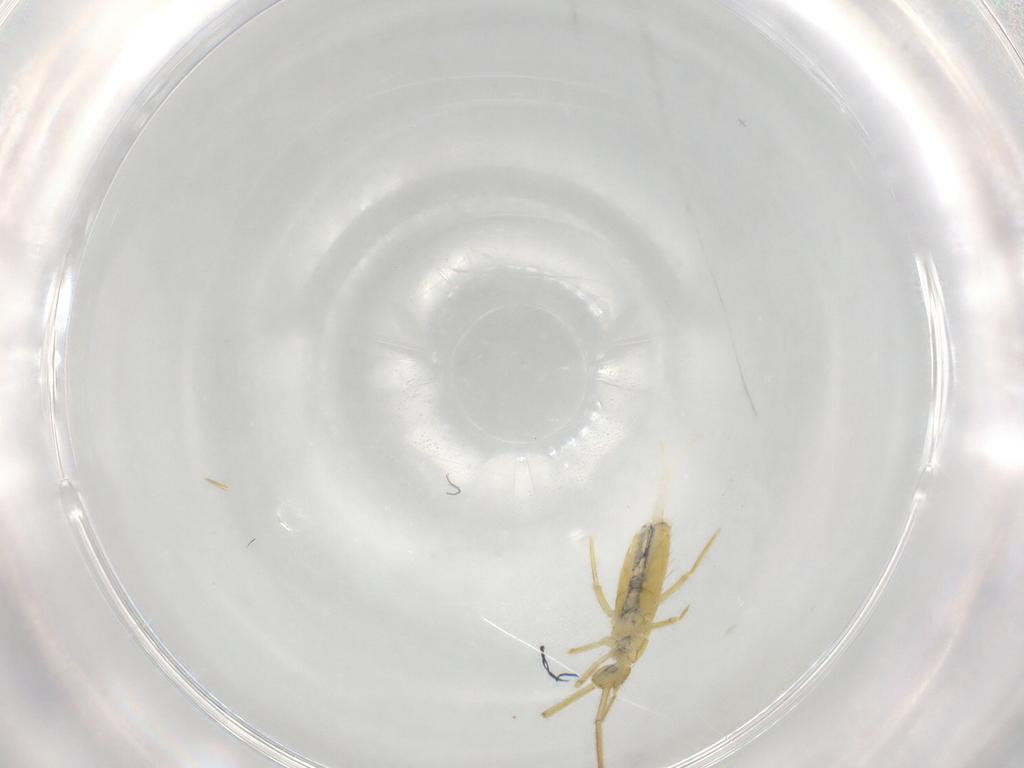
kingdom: Animalia
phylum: Arthropoda
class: Collembola
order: Entomobryomorpha
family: Paronellidae
